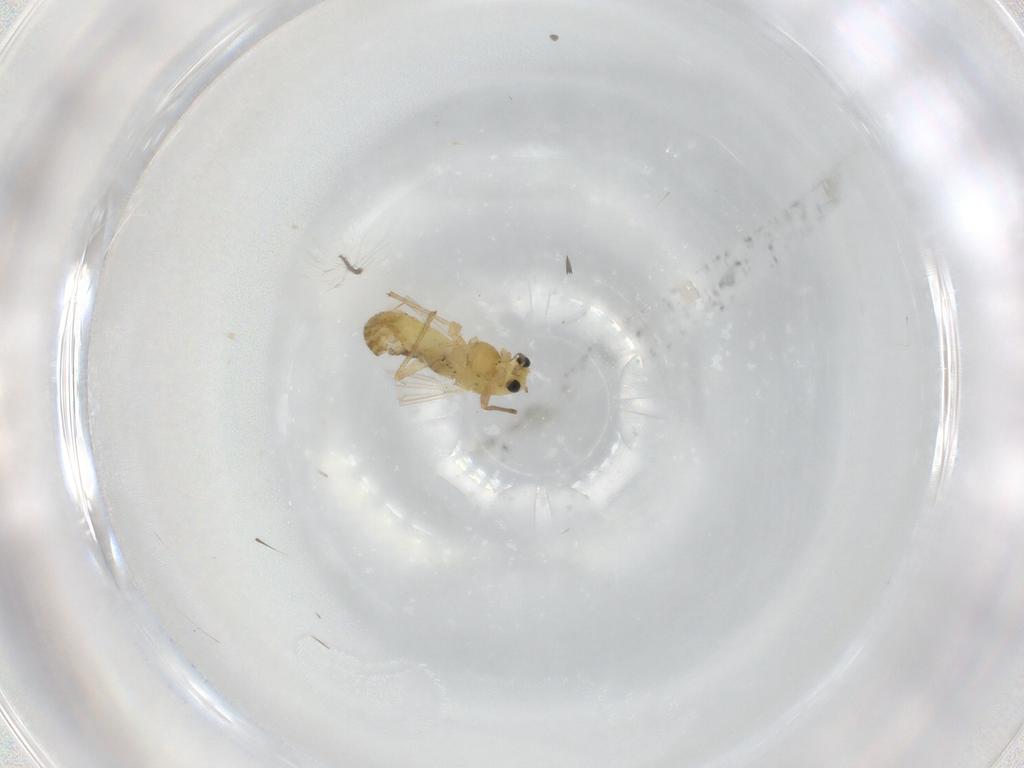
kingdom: Animalia
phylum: Arthropoda
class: Insecta
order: Diptera
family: Chironomidae
